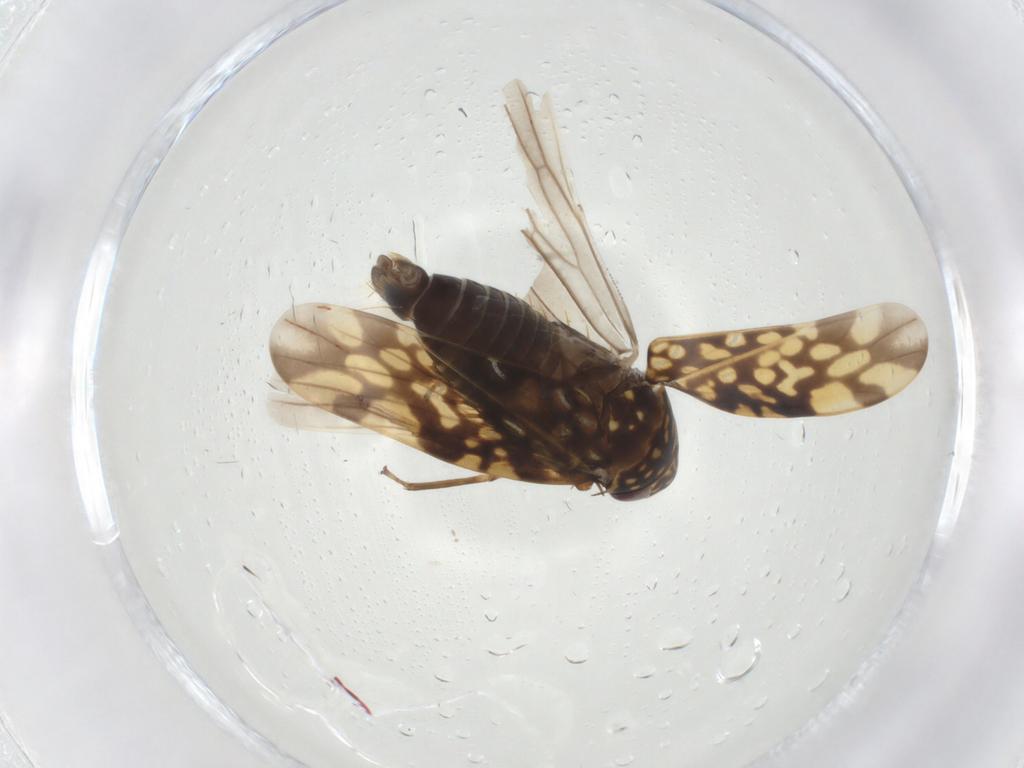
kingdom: Animalia
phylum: Arthropoda
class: Insecta
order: Hemiptera
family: Cicadellidae
